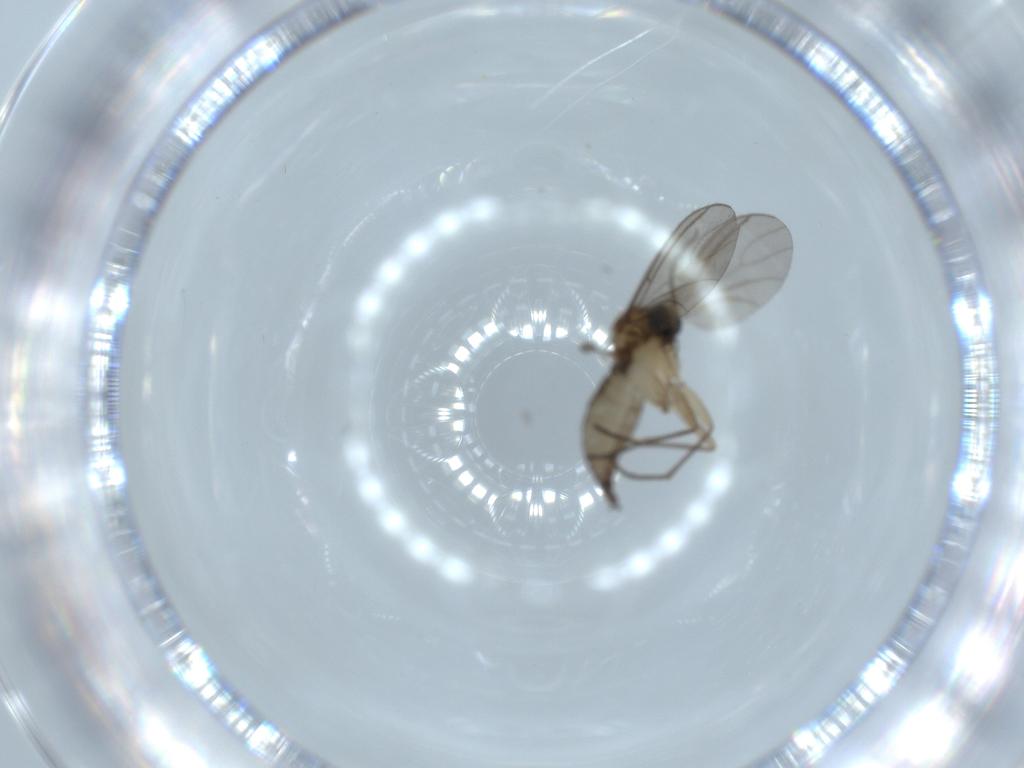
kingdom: Animalia
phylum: Arthropoda
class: Insecta
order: Diptera
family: Sciaridae
